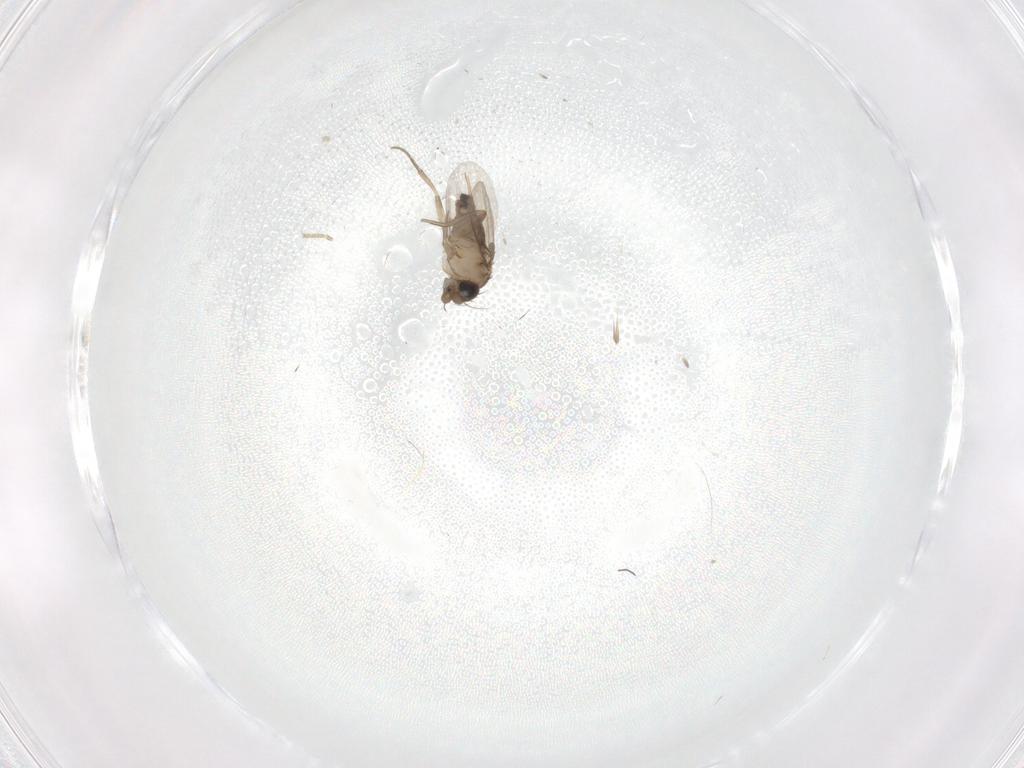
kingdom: Animalia
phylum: Arthropoda
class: Insecta
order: Diptera
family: Phoridae
